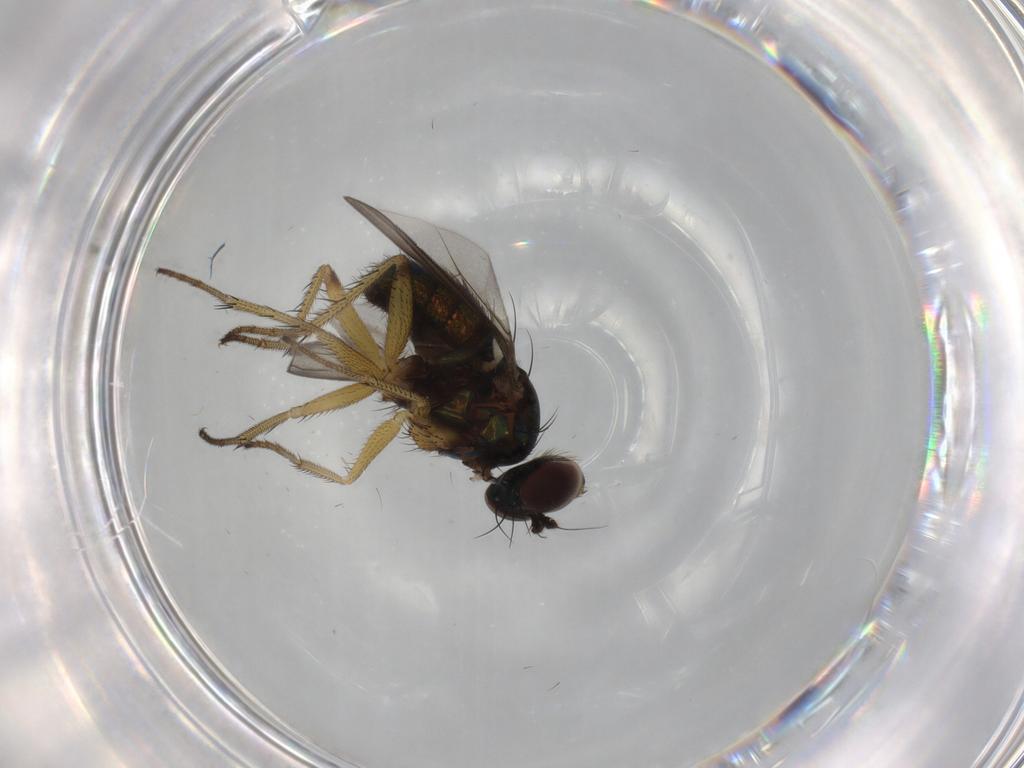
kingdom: Animalia
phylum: Arthropoda
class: Insecta
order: Diptera
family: Dolichopodidae
